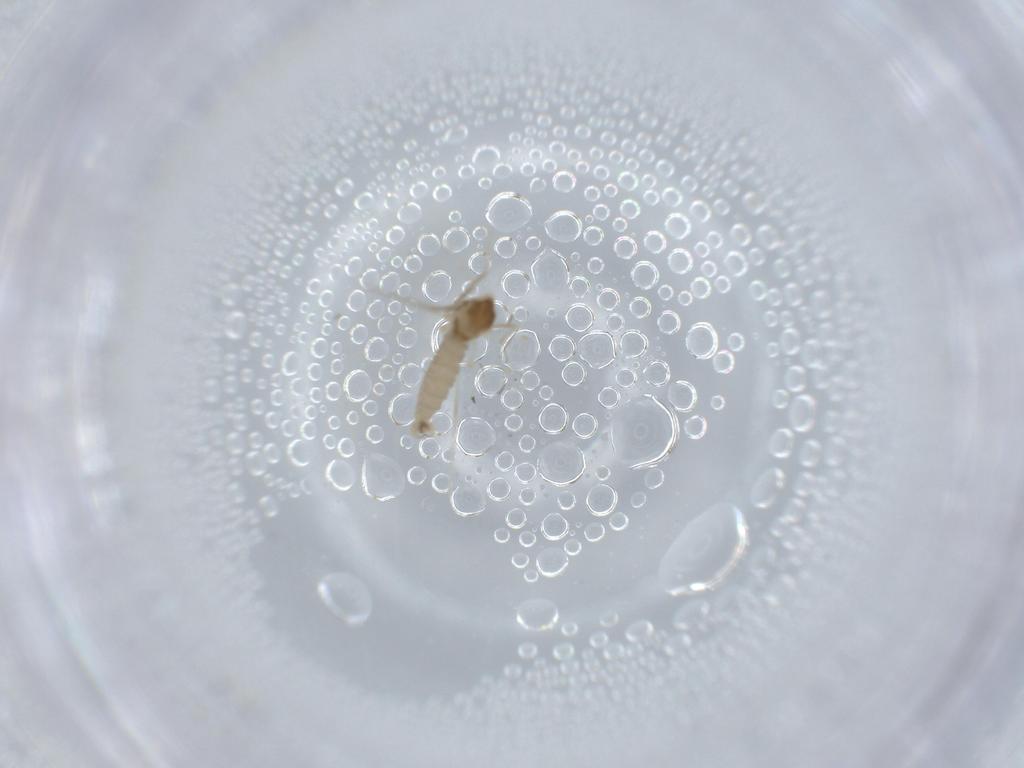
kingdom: Animalia
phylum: Arthropoda
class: Insecta
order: Diptera
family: Cecidomyiidae
